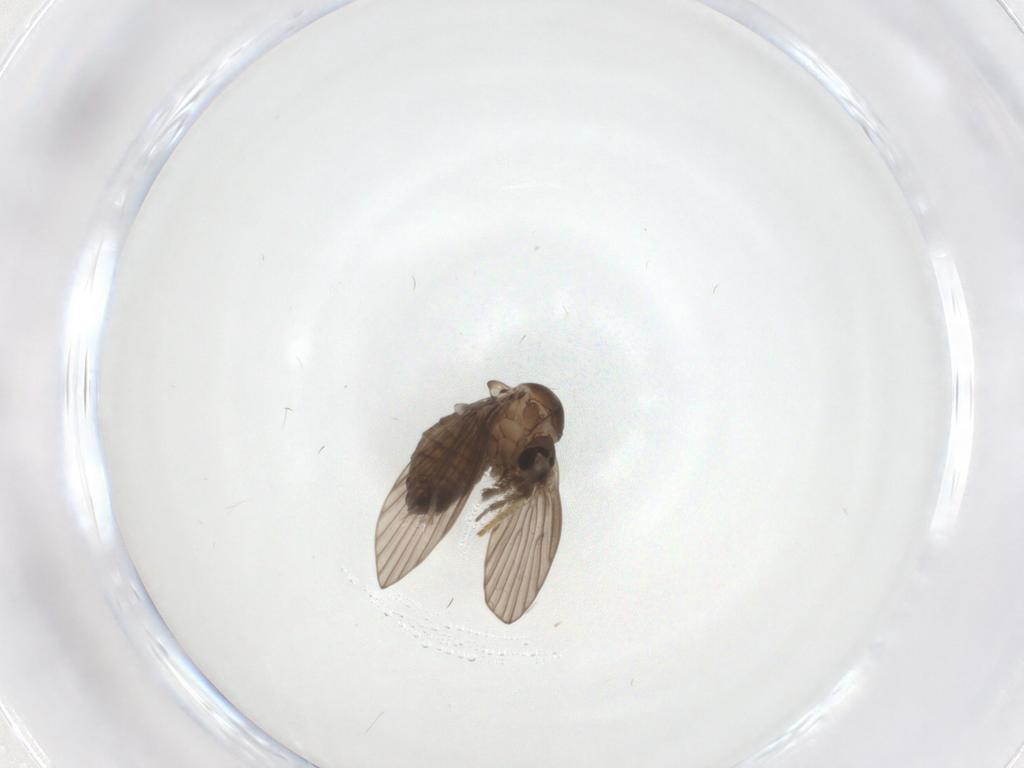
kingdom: Animalia
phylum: Arthropoda
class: Insecta
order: Diptera
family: Psychodidae
